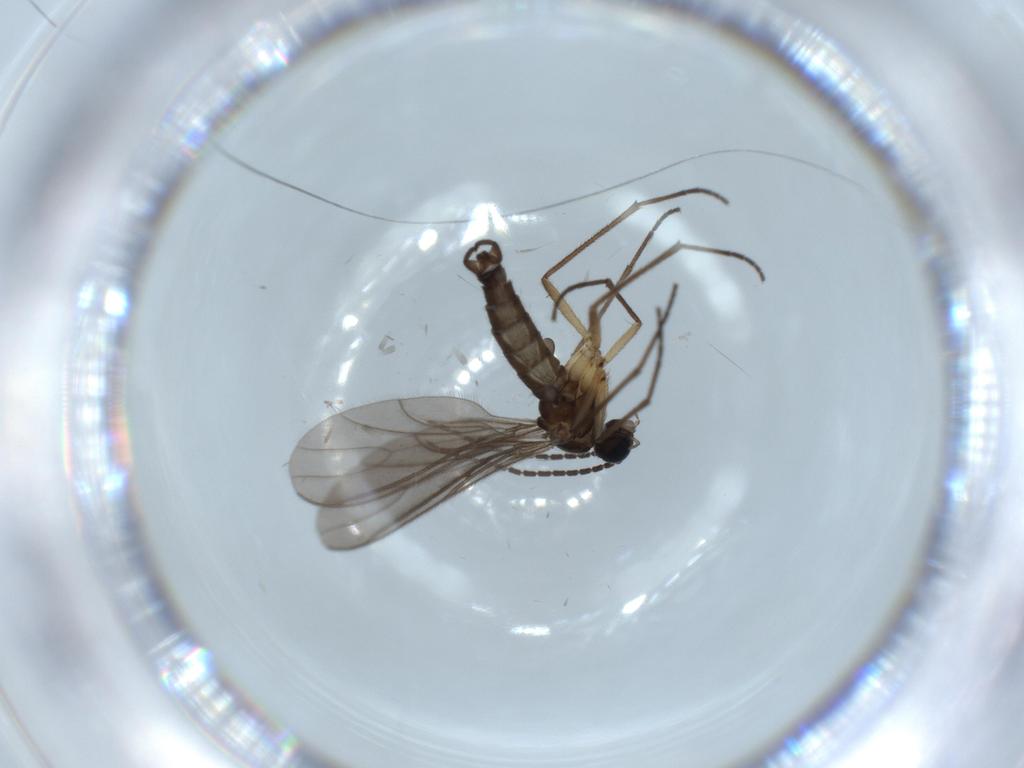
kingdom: Animalia
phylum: Arthropoda
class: Insecta
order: Diptera
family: Sciaridae
